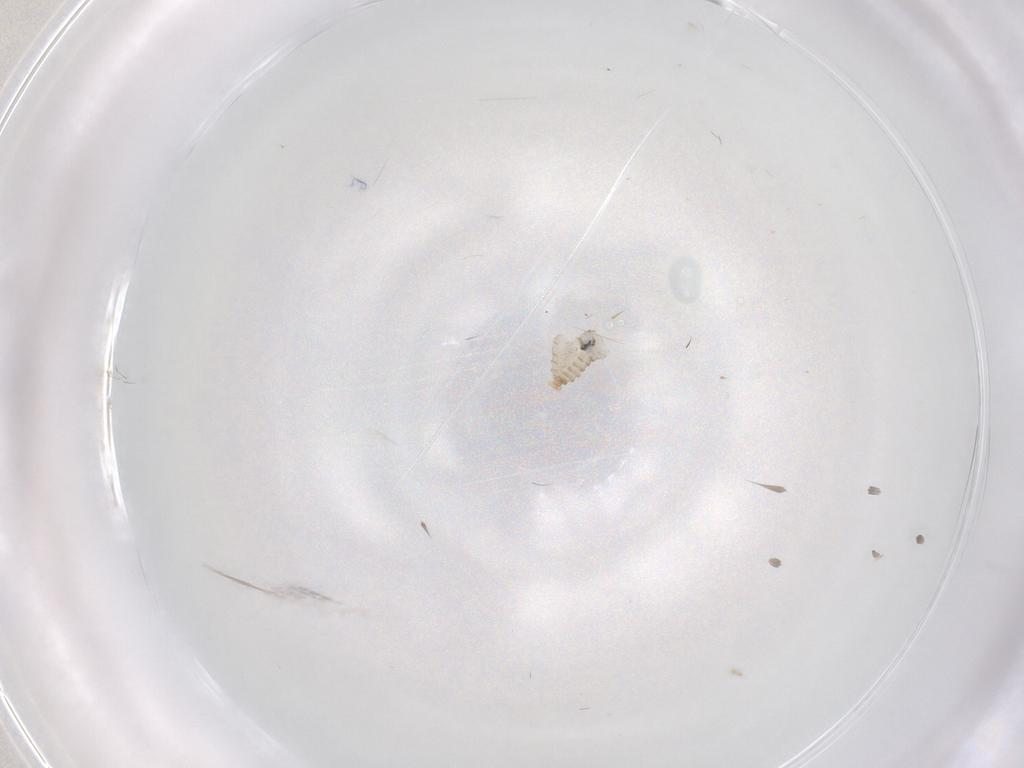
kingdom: Animalia
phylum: Arthropoda
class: Insecta
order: Diptera
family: Cecidomyiidae
